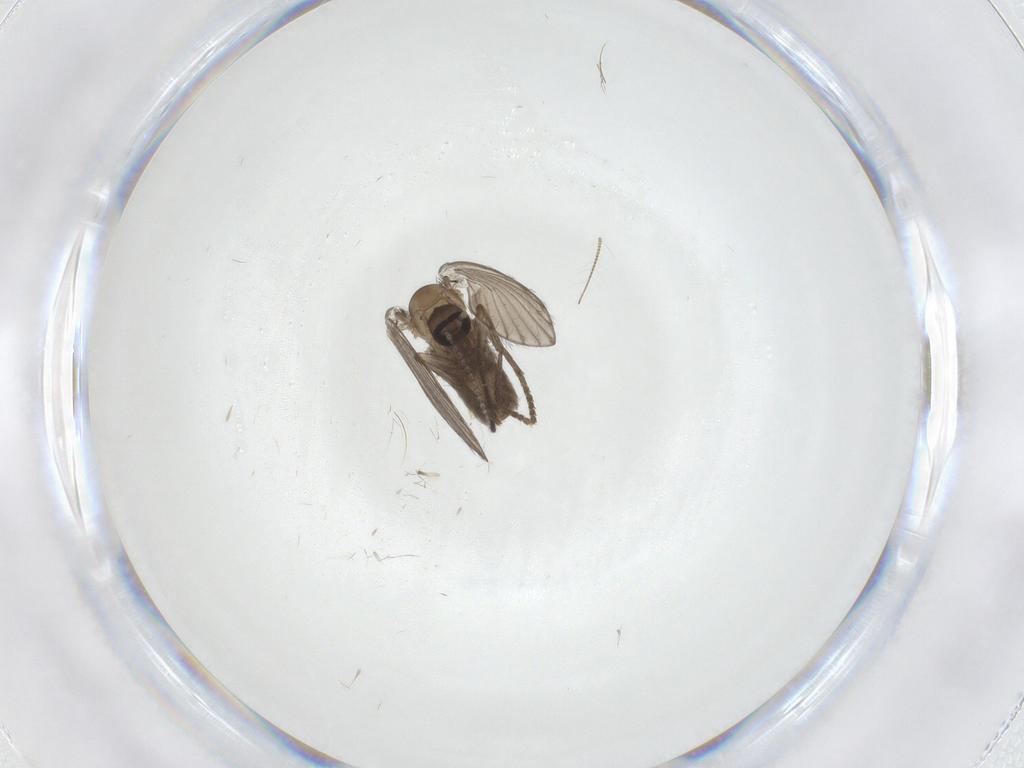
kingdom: Animalia
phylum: Arthropoda
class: Insecta
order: Diptera
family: Psychodidae
